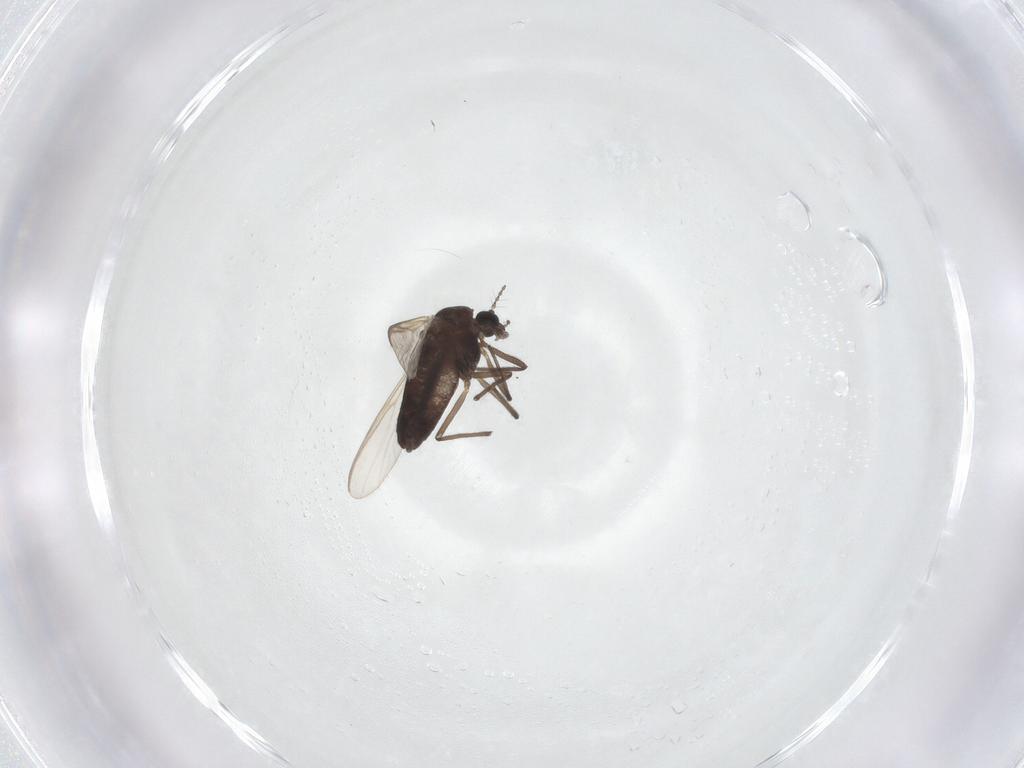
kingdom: Animalia
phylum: Arthropoda
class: Insecta
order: Diptera
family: Chironomidae
